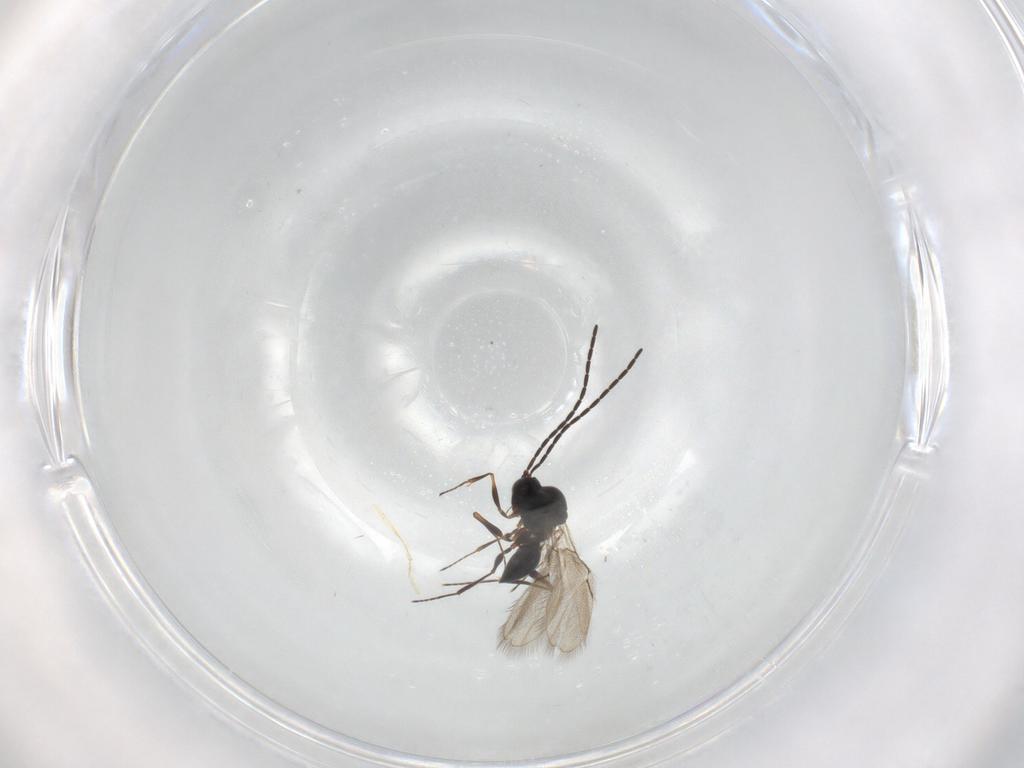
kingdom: Animalia
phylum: Arthropoda
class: Insecta
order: Hymenoptera
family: Figitidae
